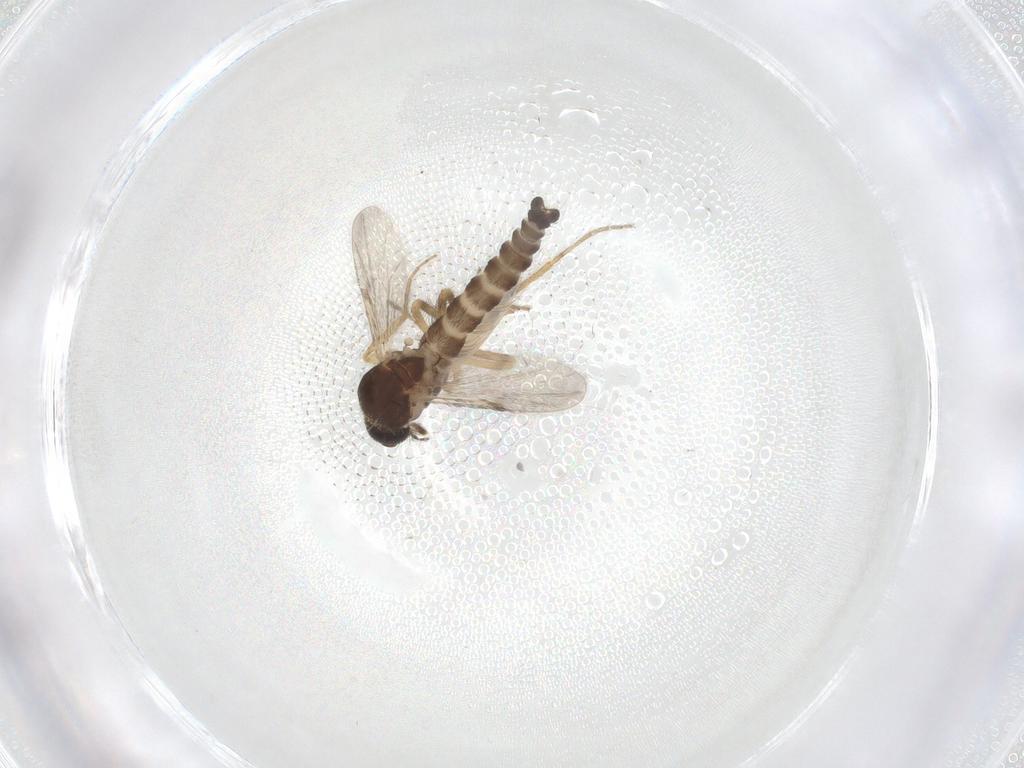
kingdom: Animalia
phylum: Arthropoda
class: Insecta
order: Diptera
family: Ceratopogonidae
